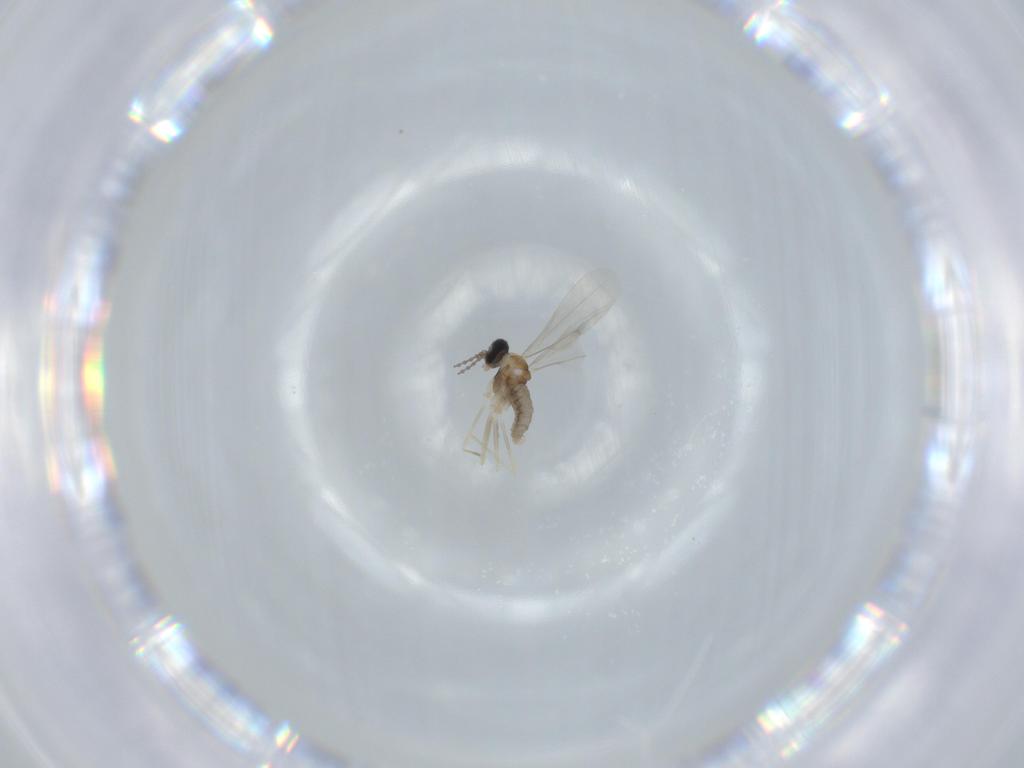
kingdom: Animalia
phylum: Arthropoda
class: Insecta
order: Diptera
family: Cecidomyiidae
